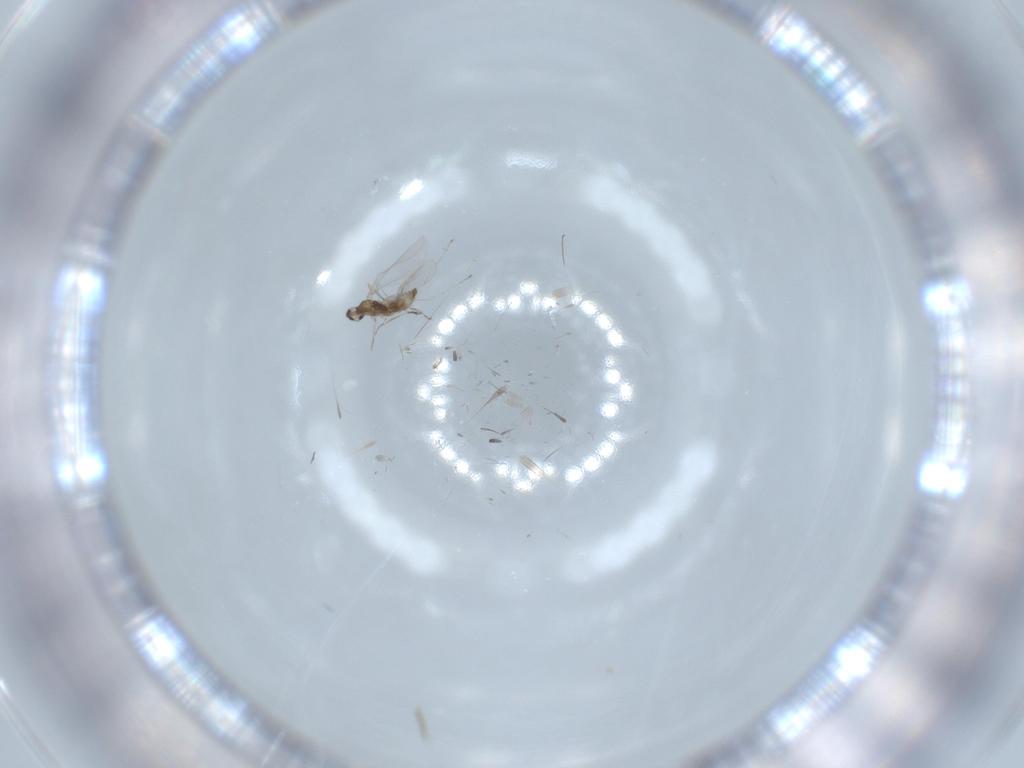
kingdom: Animalia
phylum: Arthropoda
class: Insecta
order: Diptera
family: Cecidomyiidae
